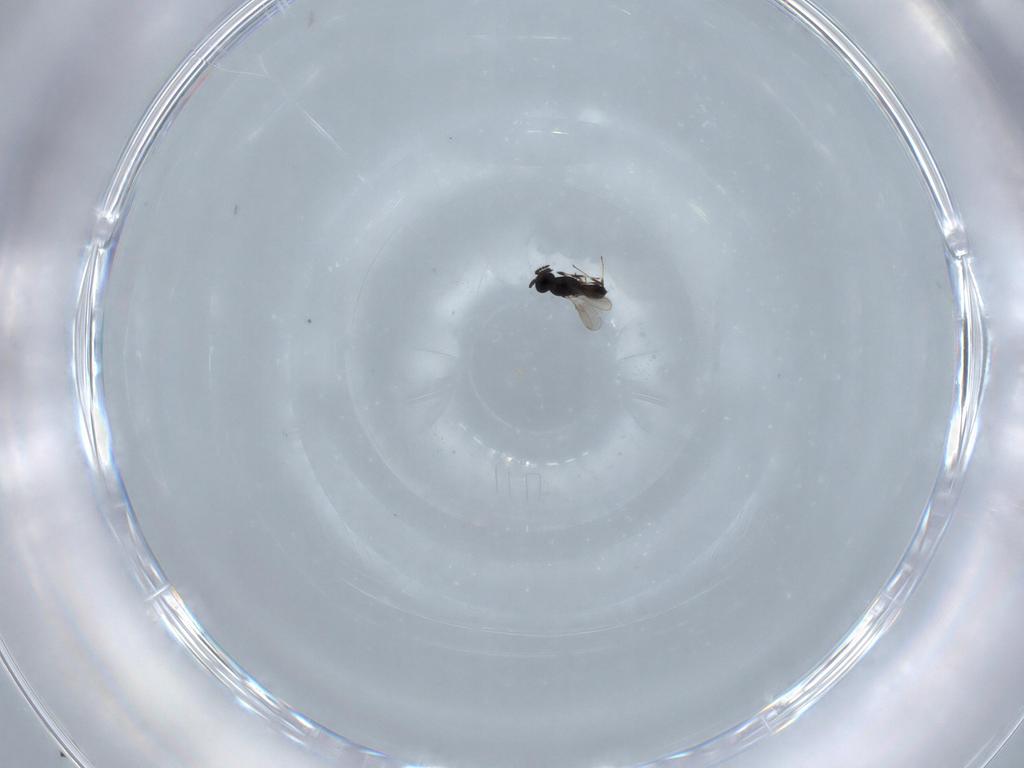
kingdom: Animalia
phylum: Arthropoda
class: Insecta
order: Hymenoptera
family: Scelionidae
